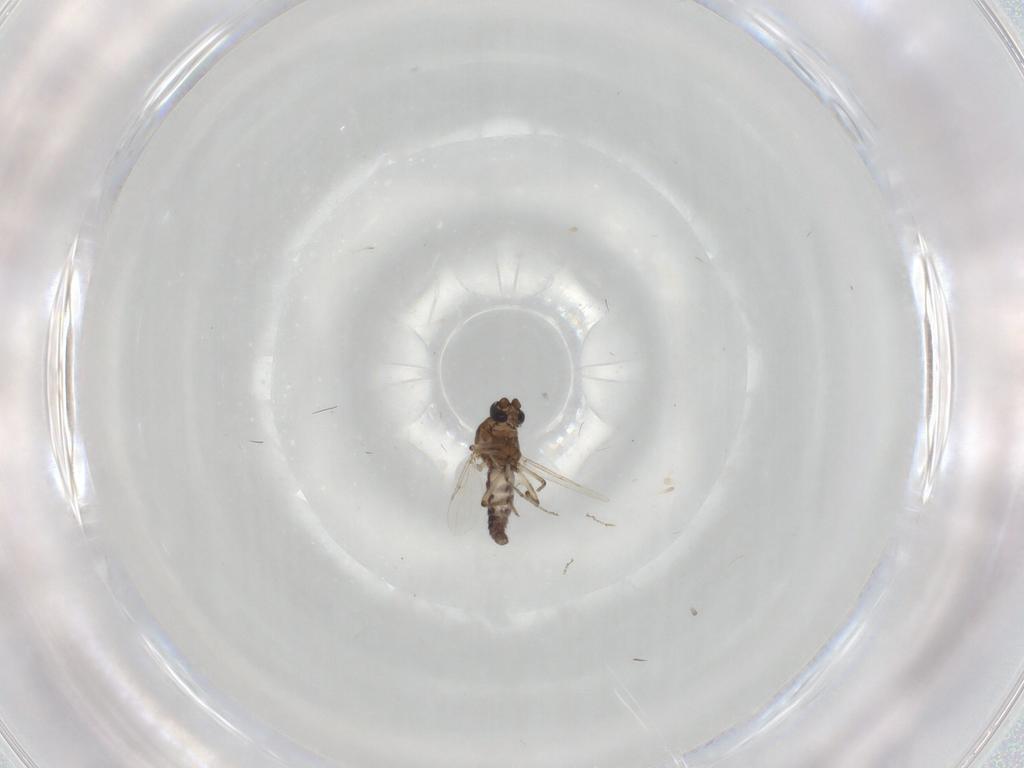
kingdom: Animalia
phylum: Arthropoda
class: Insecta
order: Diptera
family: Ceratopogonidae
